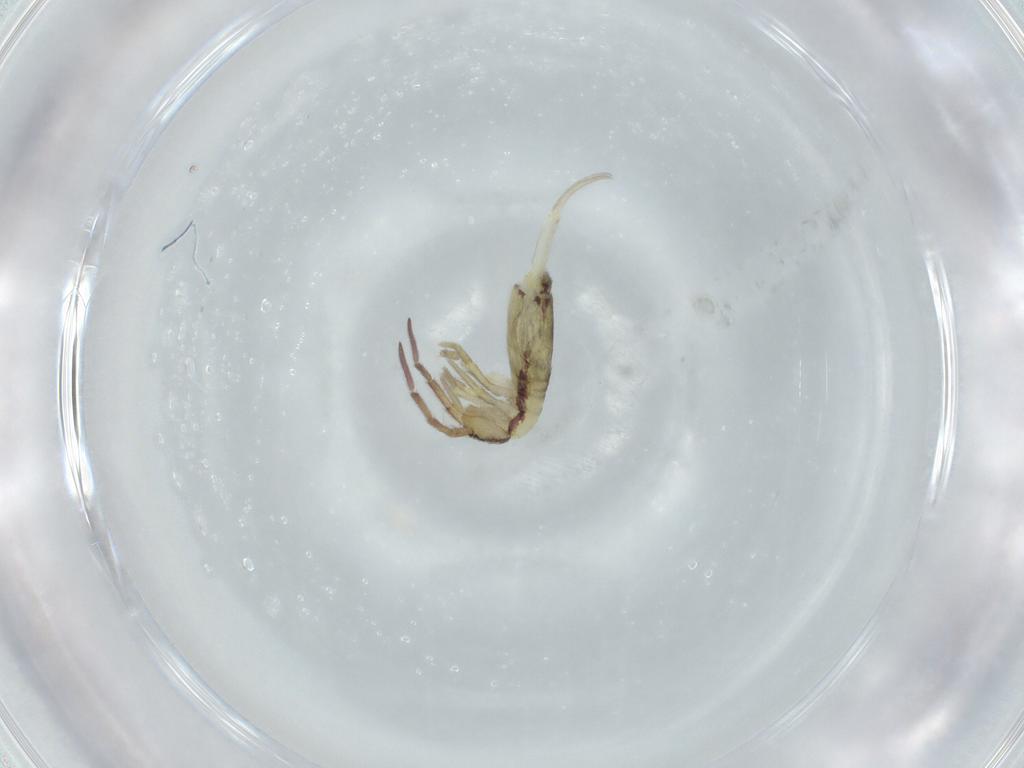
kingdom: Animalia
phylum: Arthropoda
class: Collembola
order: Entomobryomorpha
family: Entomobryidae
